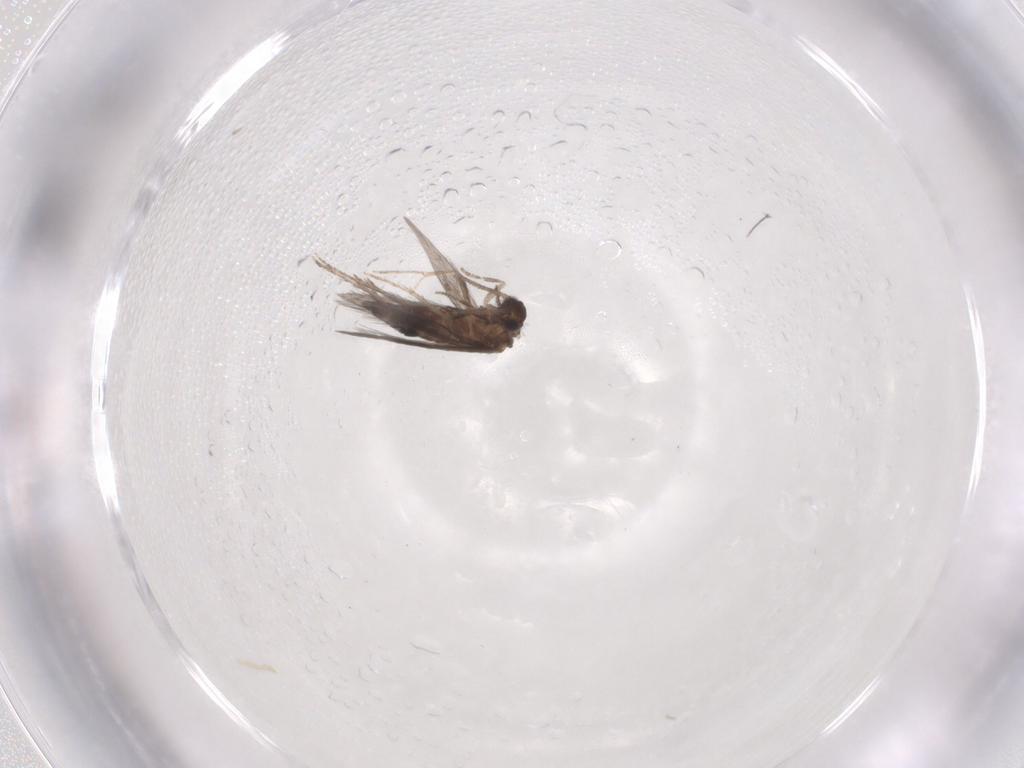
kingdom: Animalia
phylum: Arthropoda
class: Insecta
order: Trichoptera
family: Hydroptilidae
